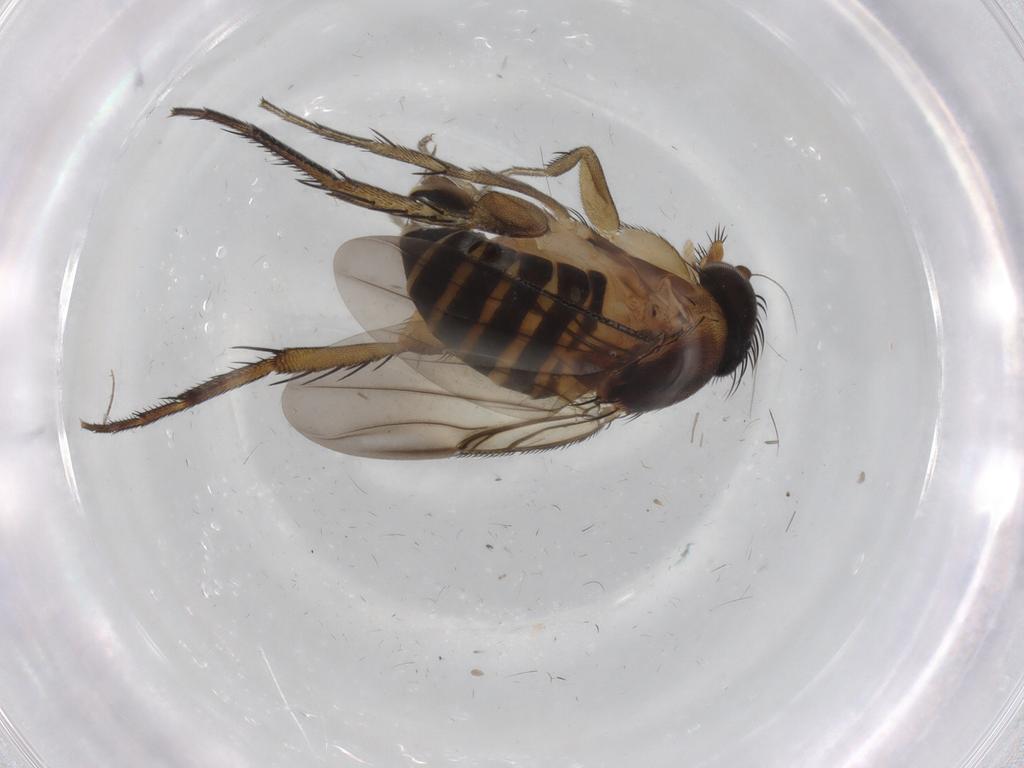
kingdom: Animalia
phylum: Arthropoda
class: Insecta
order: Diptera
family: Phoridae
